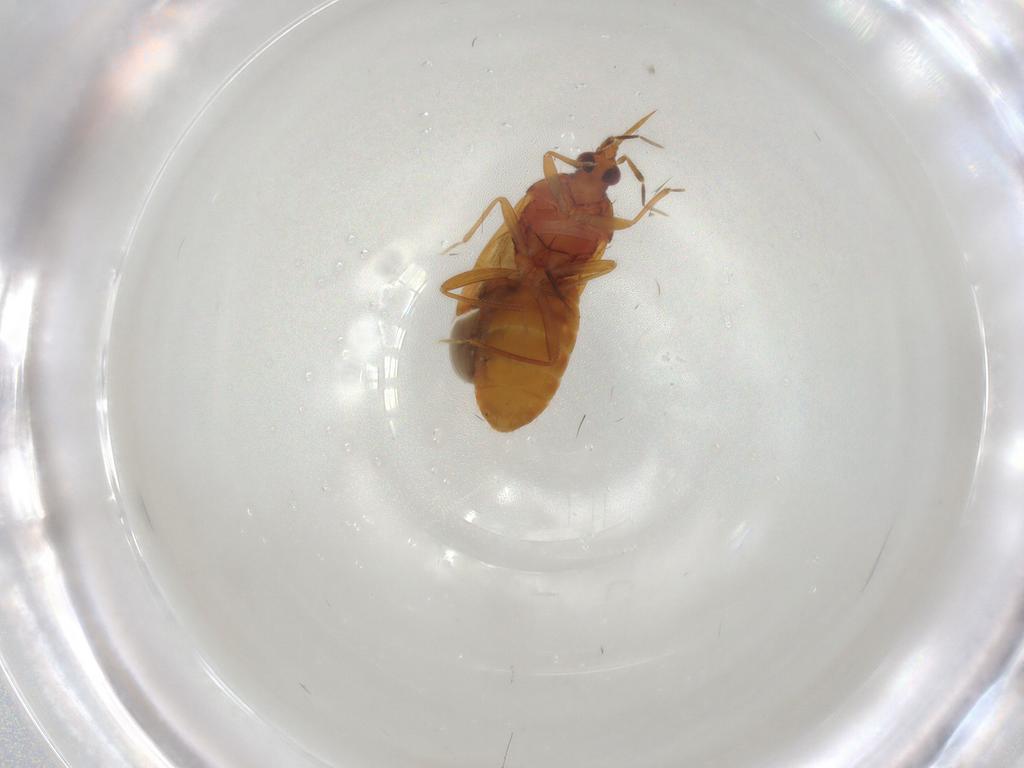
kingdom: Animalia
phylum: Arthropoda
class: Insecta
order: Hemiptera
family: Anthocoridae
